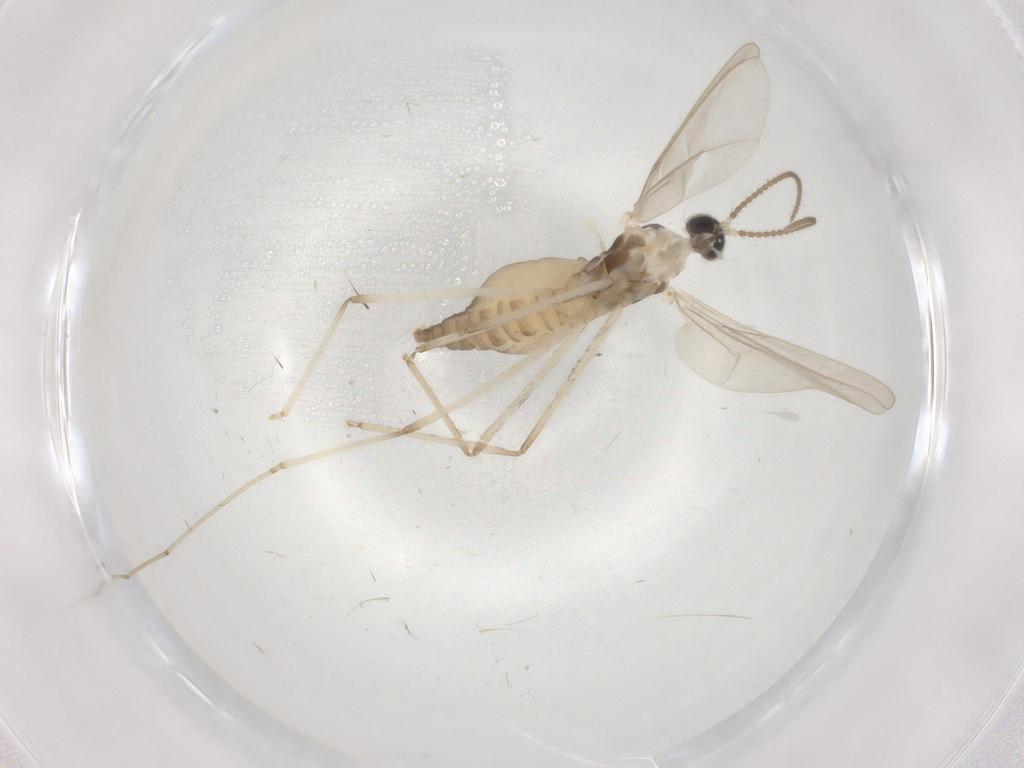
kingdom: Animalia
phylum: Arthropoda
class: Insecta
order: Diptera
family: Cecidomyiidae
